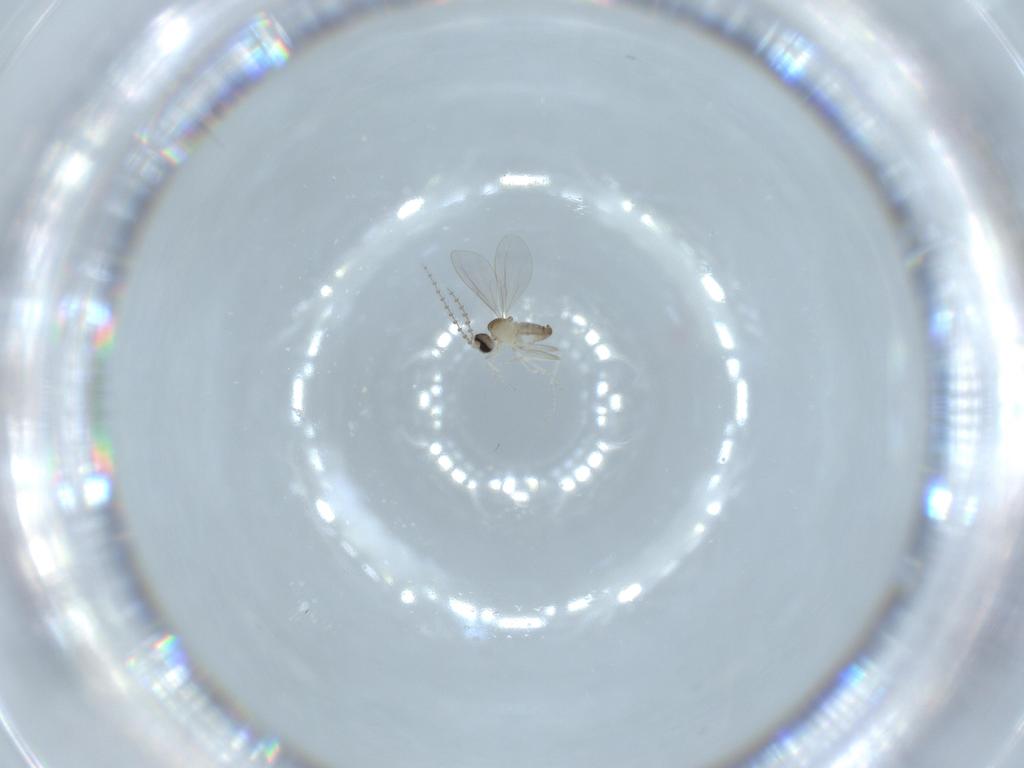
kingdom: Animalia
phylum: Arthropoda
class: Insecta
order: Diptera
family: Cecidomyiidae
